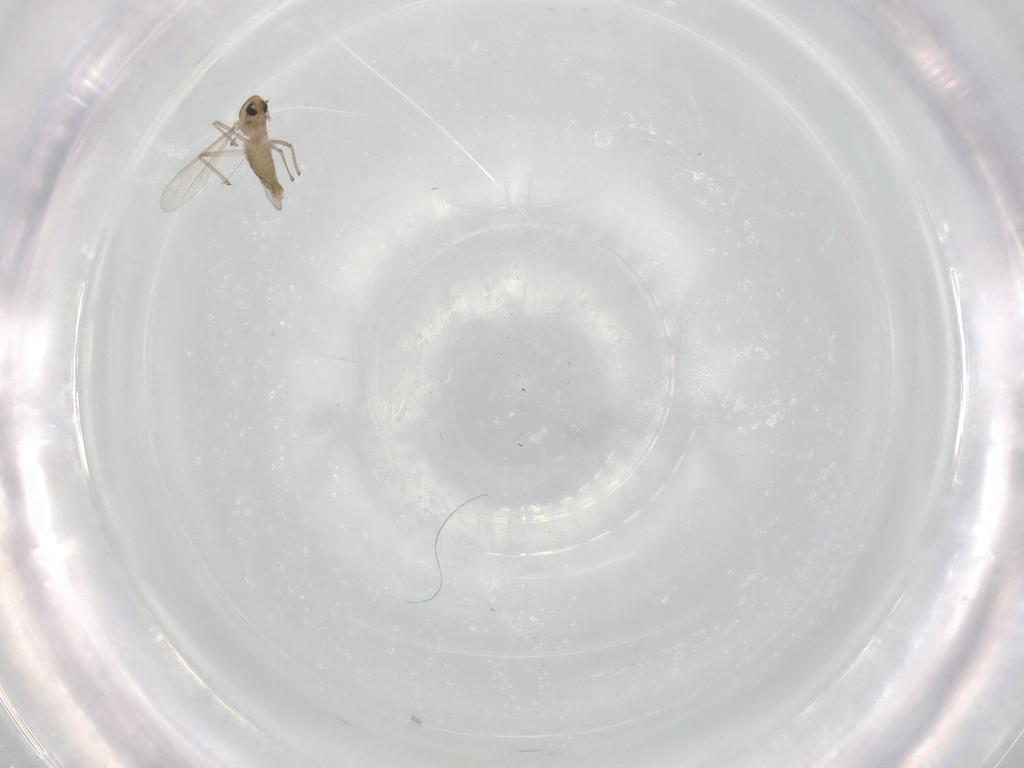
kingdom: Animalia
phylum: Arthropoda
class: Insecta
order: Diptera
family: Chironomidae
